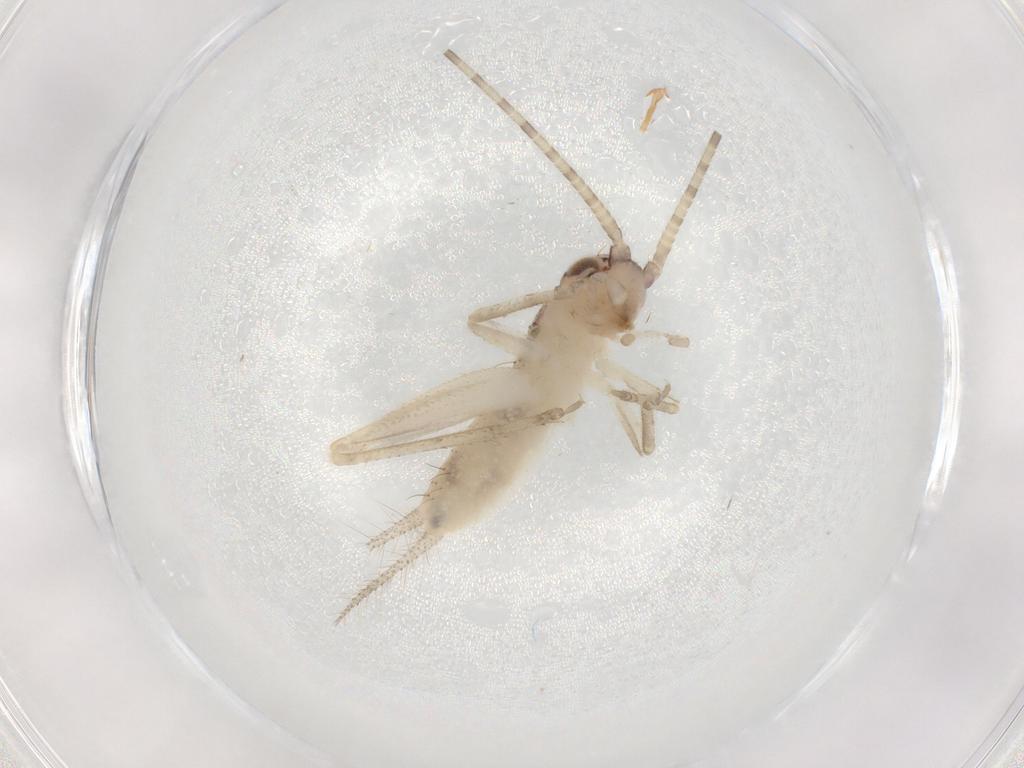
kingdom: Animalia
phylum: Arthropoda
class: Insecta
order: Orthoptera
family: Gryllidae
